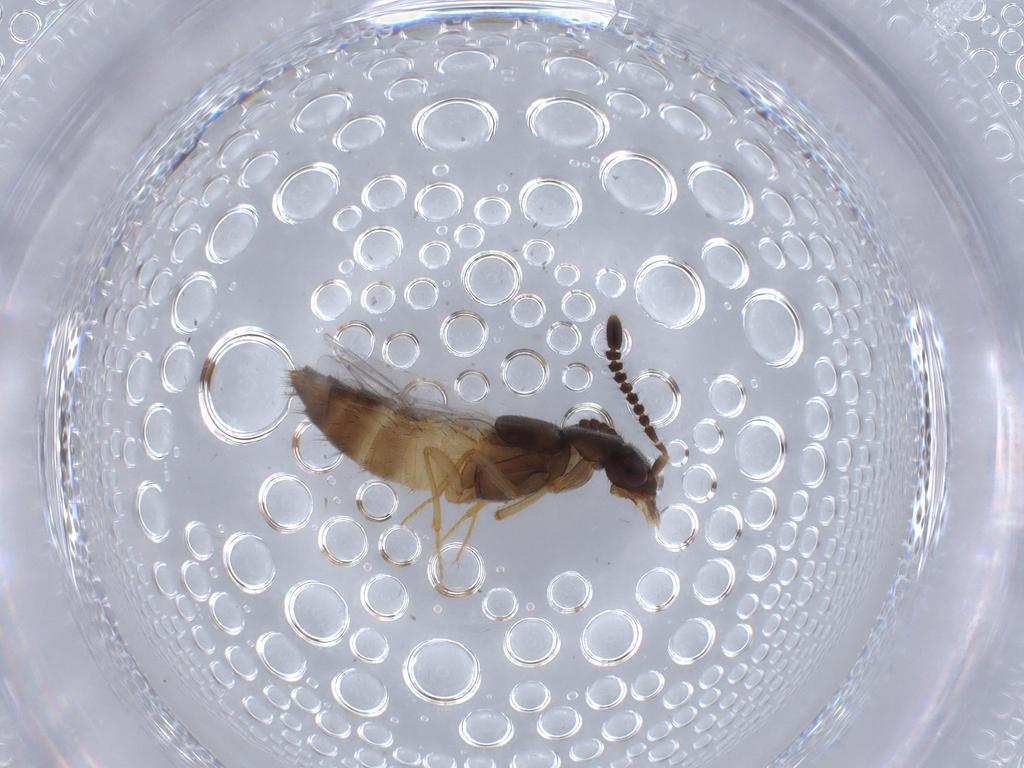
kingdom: Animalia
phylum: Arthropoda
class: Insecta
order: Coleoptera
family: Staphylinidae
